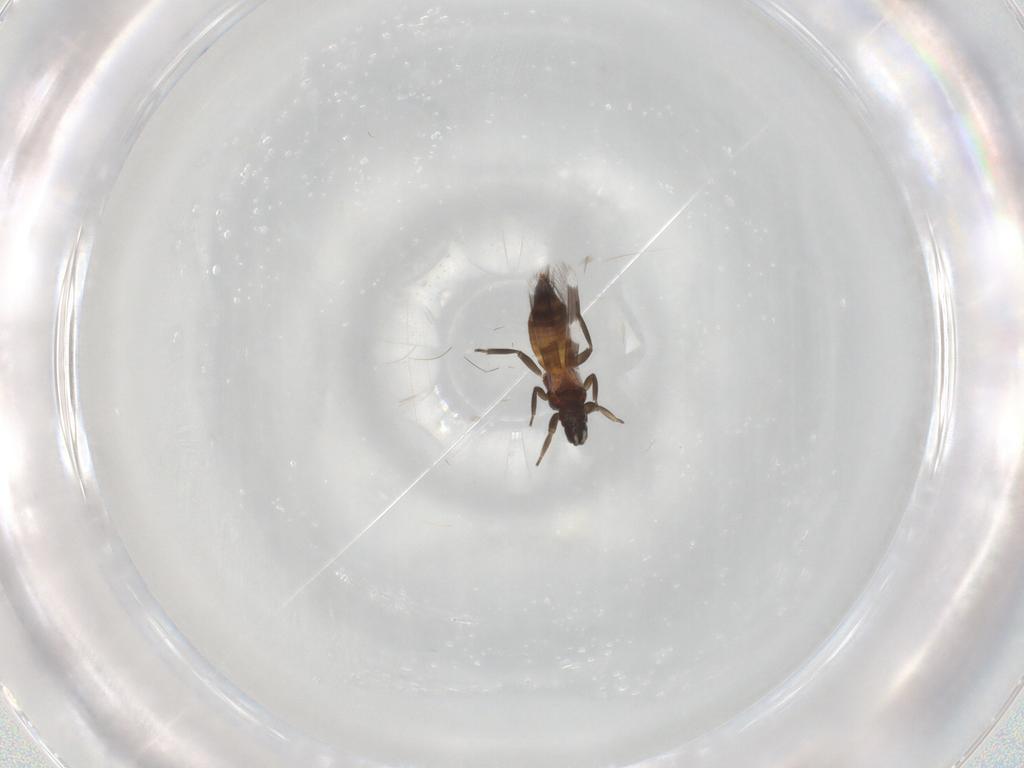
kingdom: Animalia
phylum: Arthropoda
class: Insecta
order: Thysanoptera
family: Aeolothripidae
